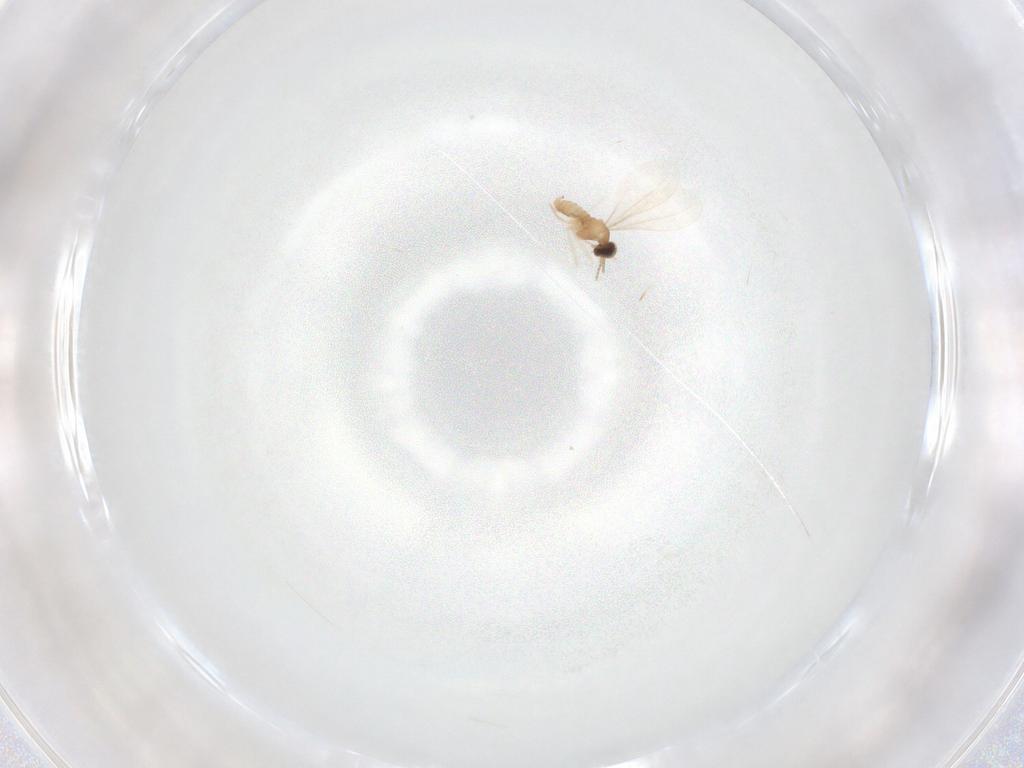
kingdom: Animalia
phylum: Arthropoda
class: Insecta
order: Diptera
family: Cecidomyiidae
